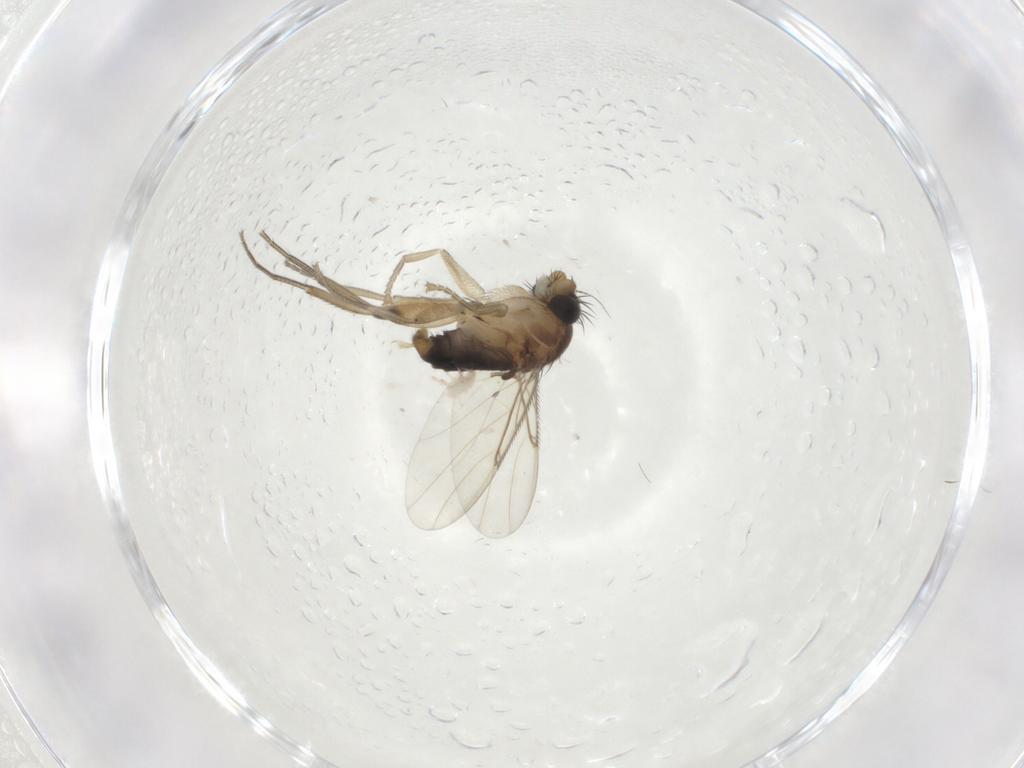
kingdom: Animalia
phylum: Arthropoda
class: Insecta
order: Diptera
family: Phoridae
